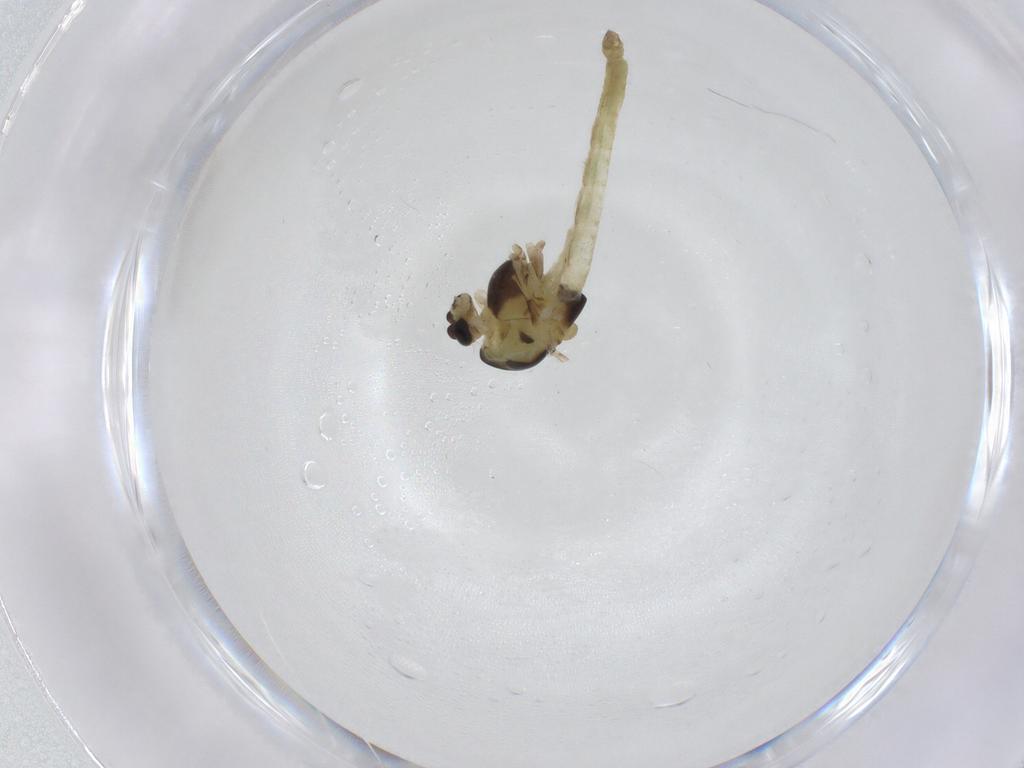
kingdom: Animalia
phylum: Arthropoda
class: Insecta
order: Diptera
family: Chironomidae
